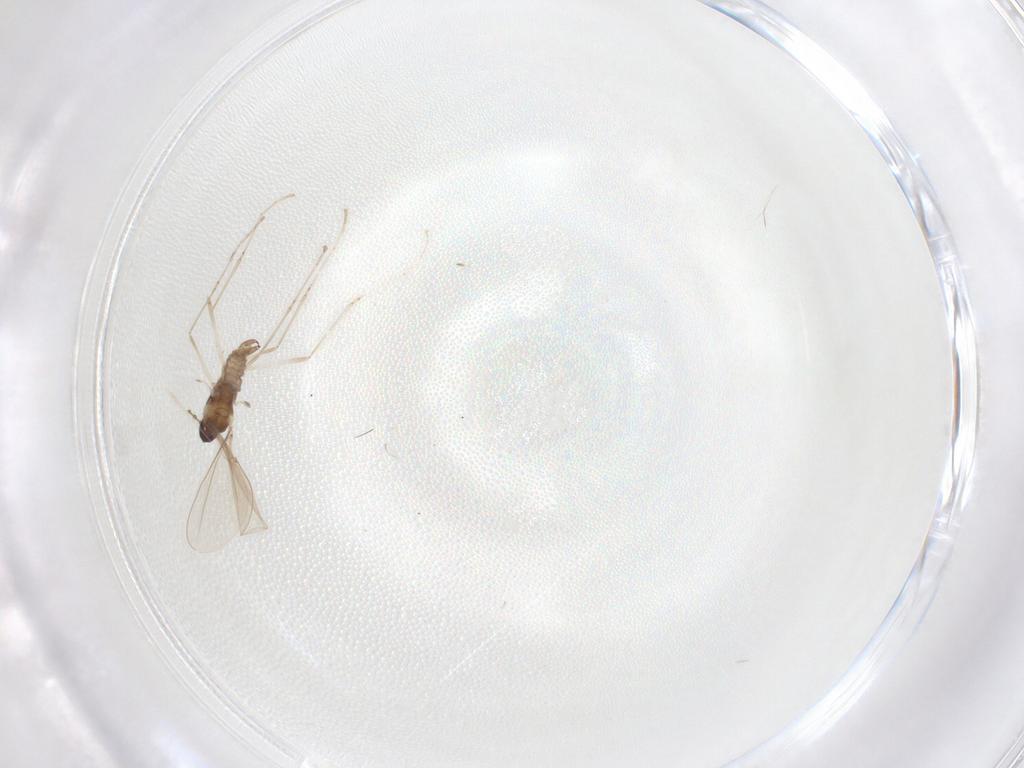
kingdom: Animalia
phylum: Arthropoda
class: Insecta
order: Diptera
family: Cecidomyiidae
